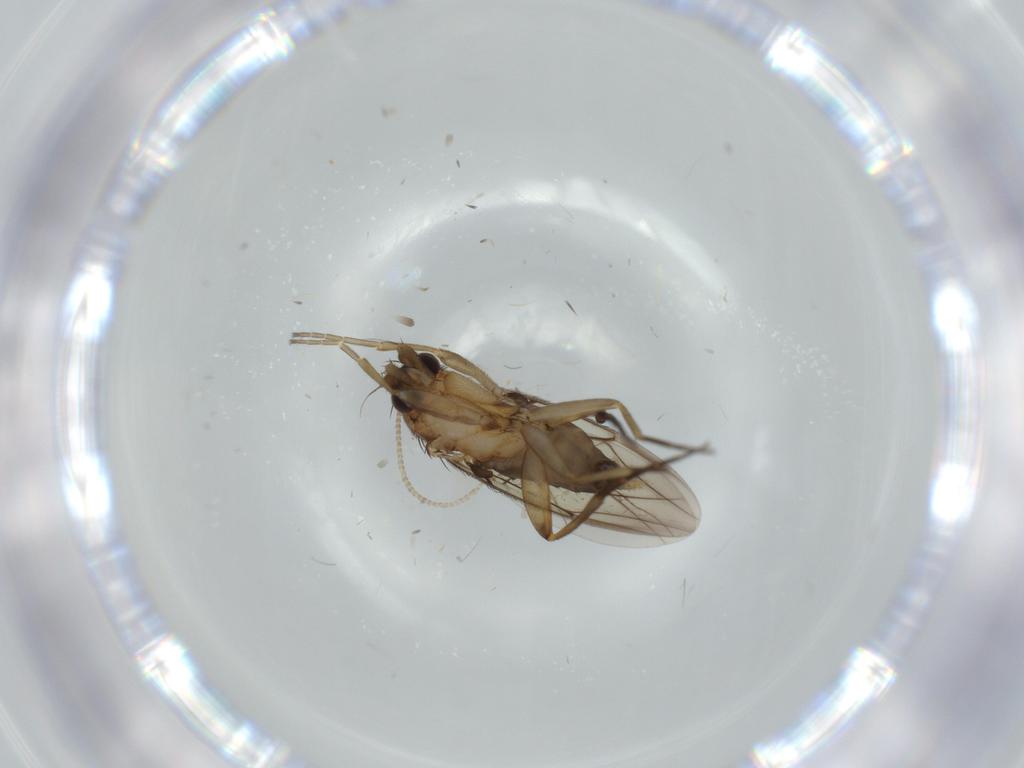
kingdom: Animalia
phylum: Arthropoda
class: Insecta
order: Diptera
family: Phoridae
